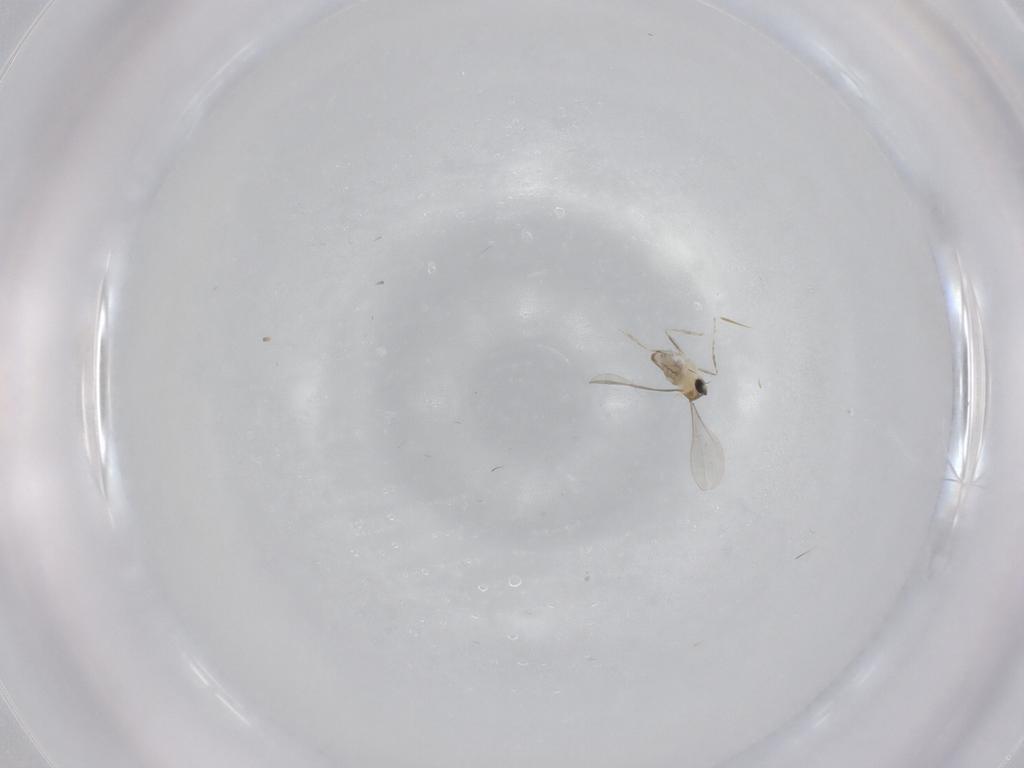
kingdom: Animalia
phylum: Arthropoda
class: Insecta
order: Diptera
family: Cecidomyiidae
